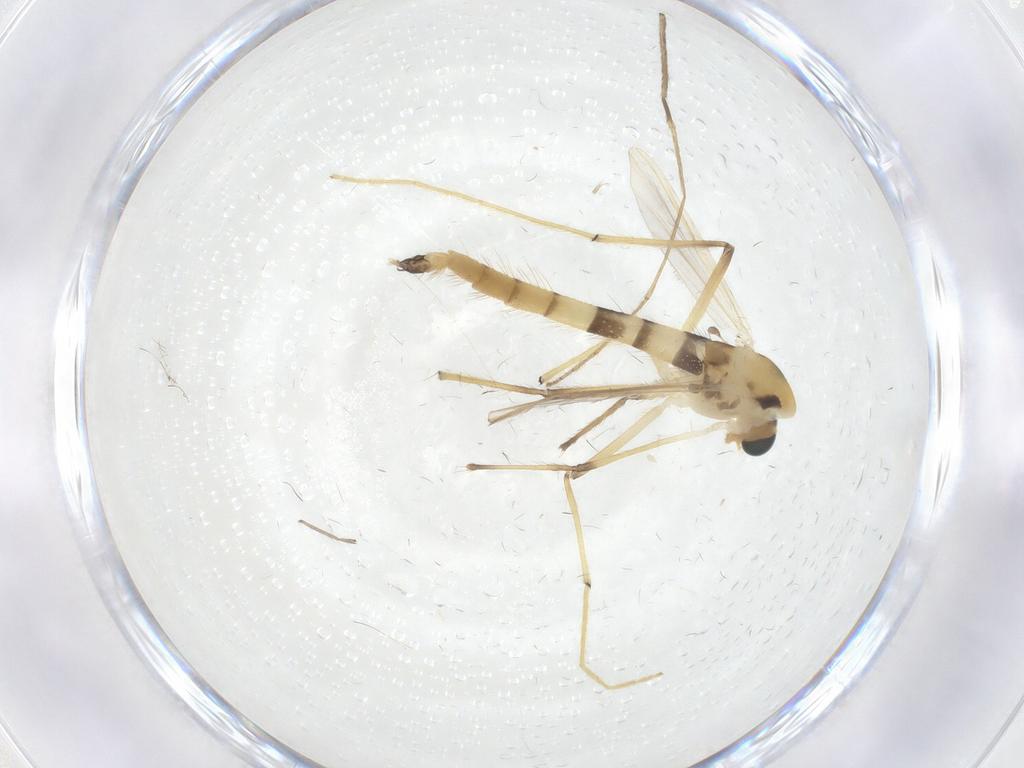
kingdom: Animalia
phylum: Arthropoda
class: Insecta
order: Diptera
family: Chironomidae
